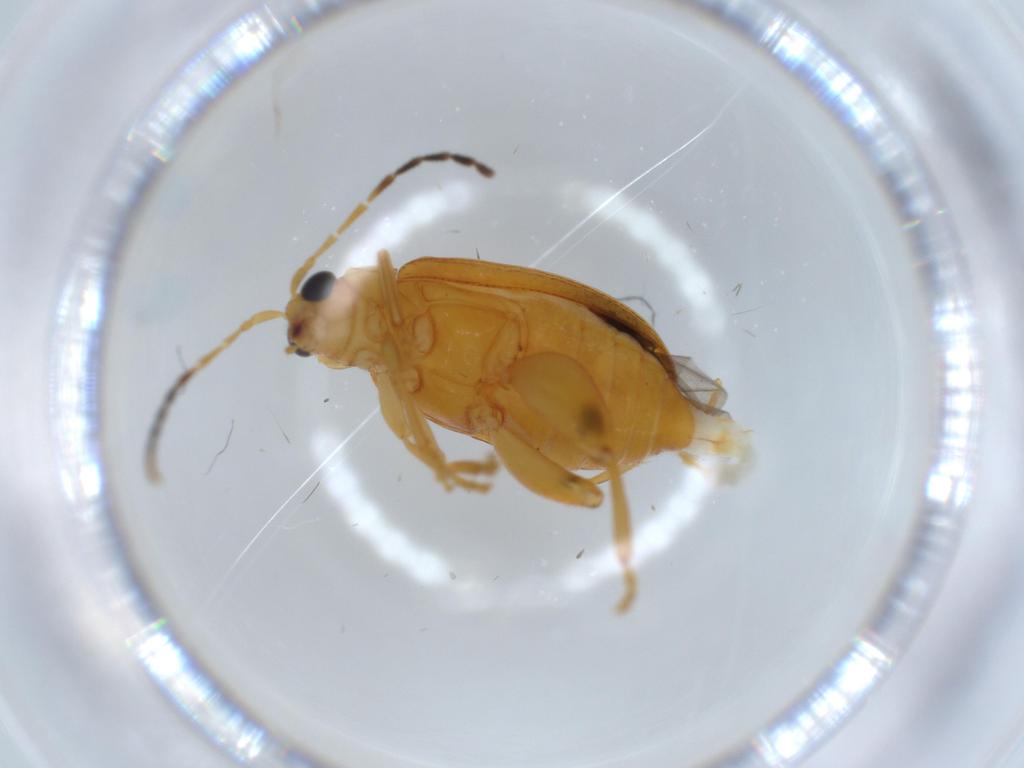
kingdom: Animalia
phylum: Arthropoda
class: Insecta
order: Coleoptera
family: Chrysomelidae
